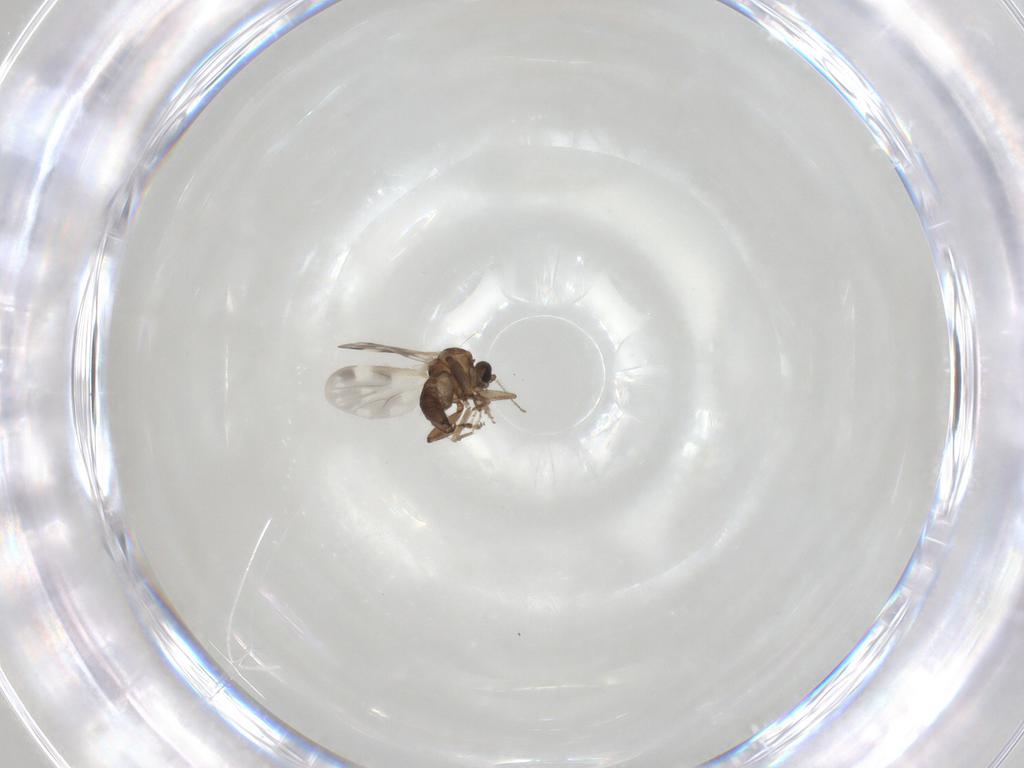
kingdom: Animalia
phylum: Arthropoda
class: Insecta
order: Diptera
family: Ceratopogonidae
